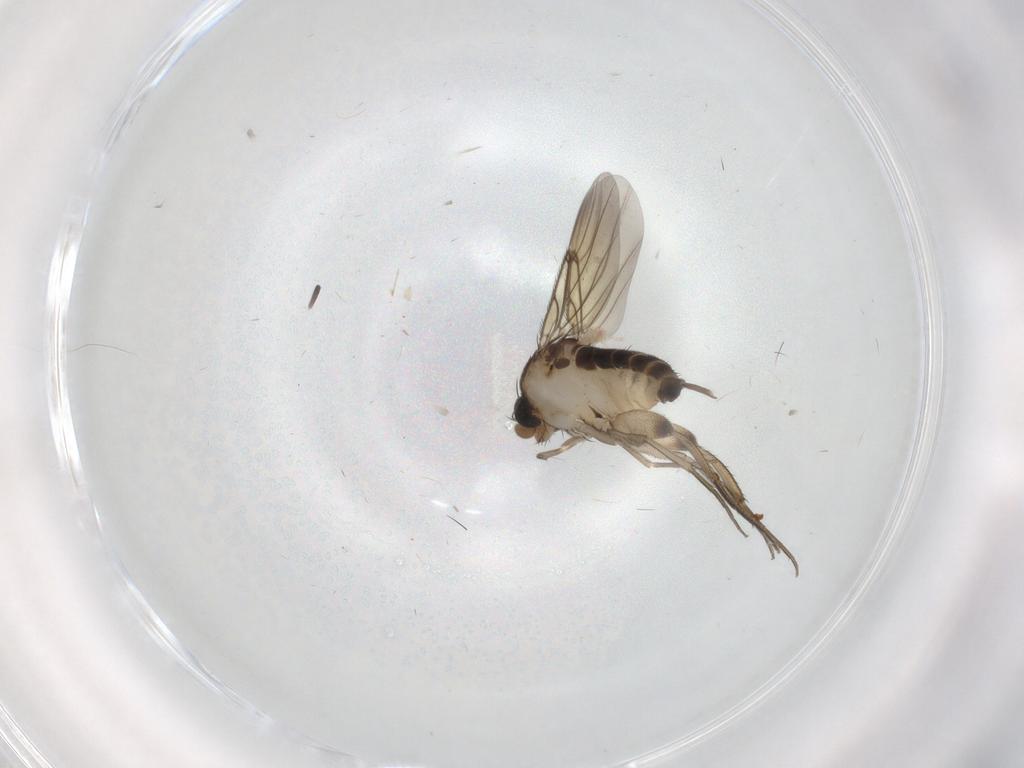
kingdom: Animalia
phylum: Arthropoda
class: Insecta
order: Diptera
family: Phoridae
